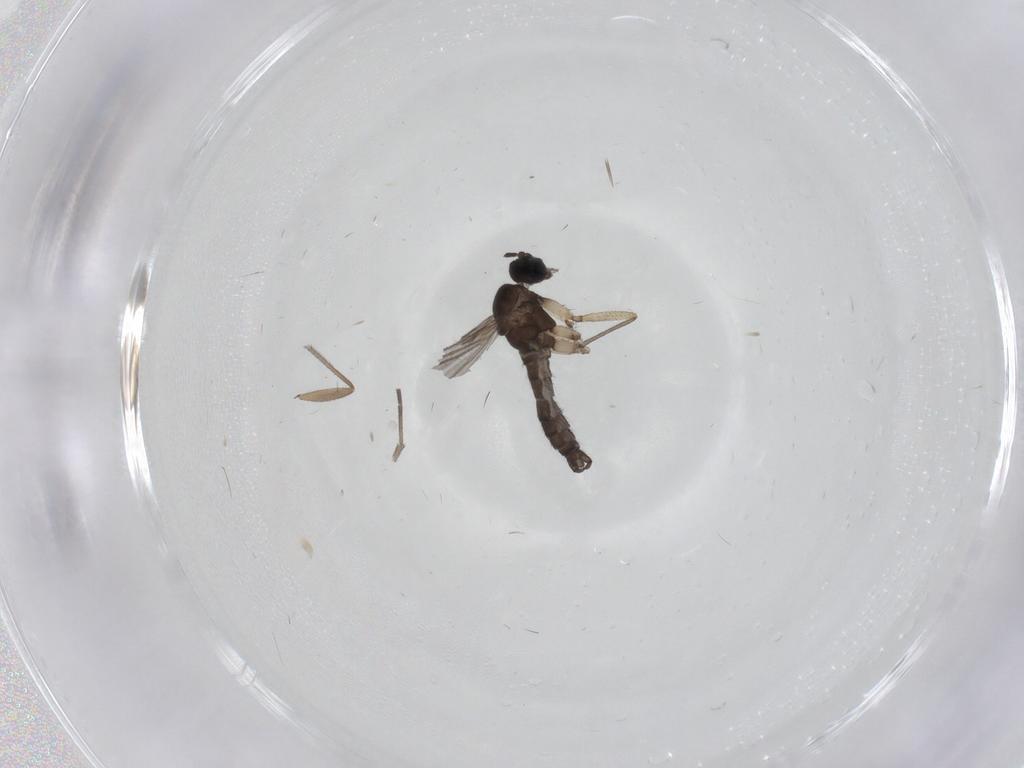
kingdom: Animalia
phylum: Arthropoda
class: Insecta
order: Diptera
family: Sciaridae
